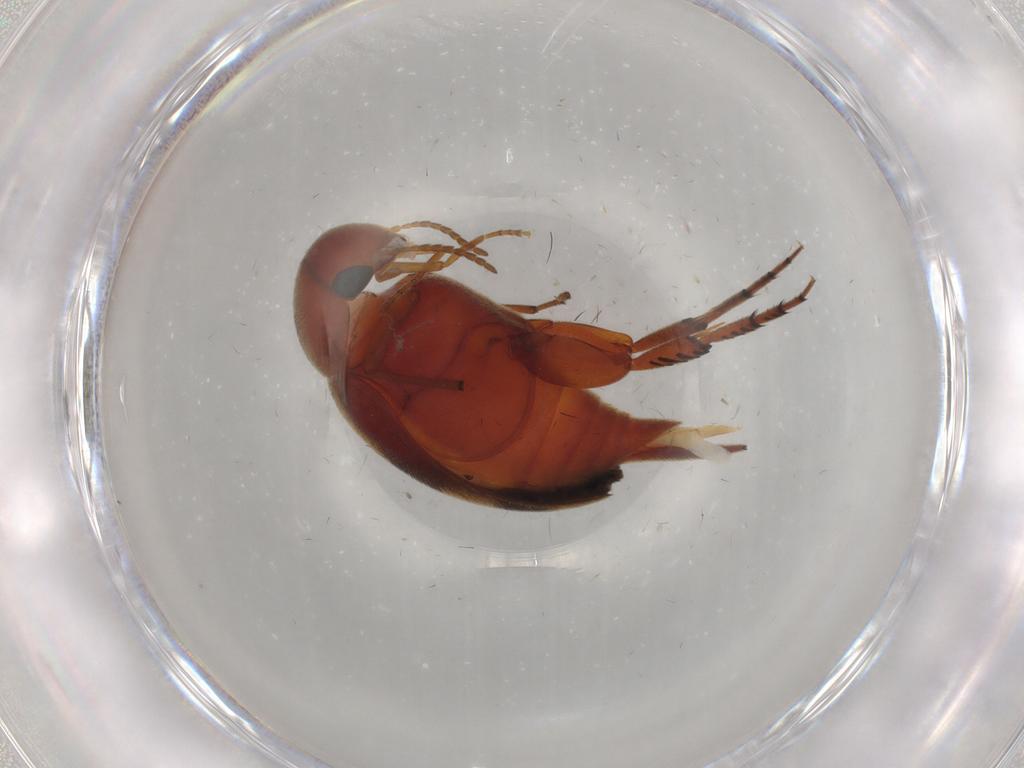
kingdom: Animalia
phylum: Arthropoda
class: Insecta
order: Coleoptera
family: Mordellidae
